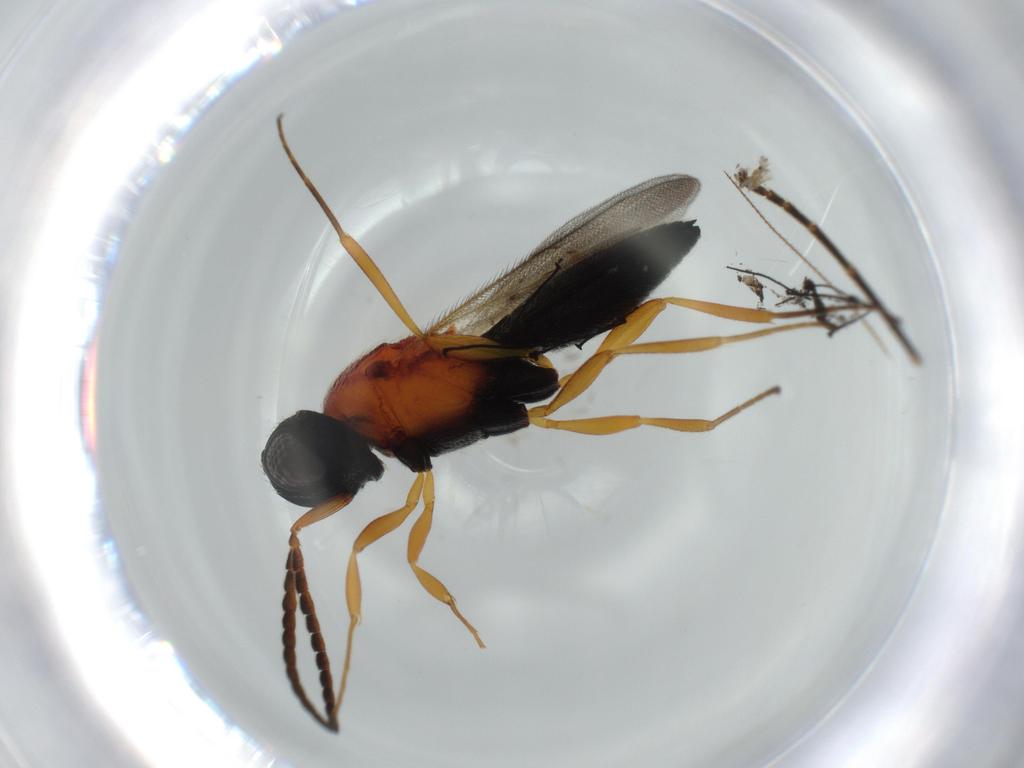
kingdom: Animalia
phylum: Arthropoda
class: Insecta
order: Hymenoptera
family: Scelionidae
